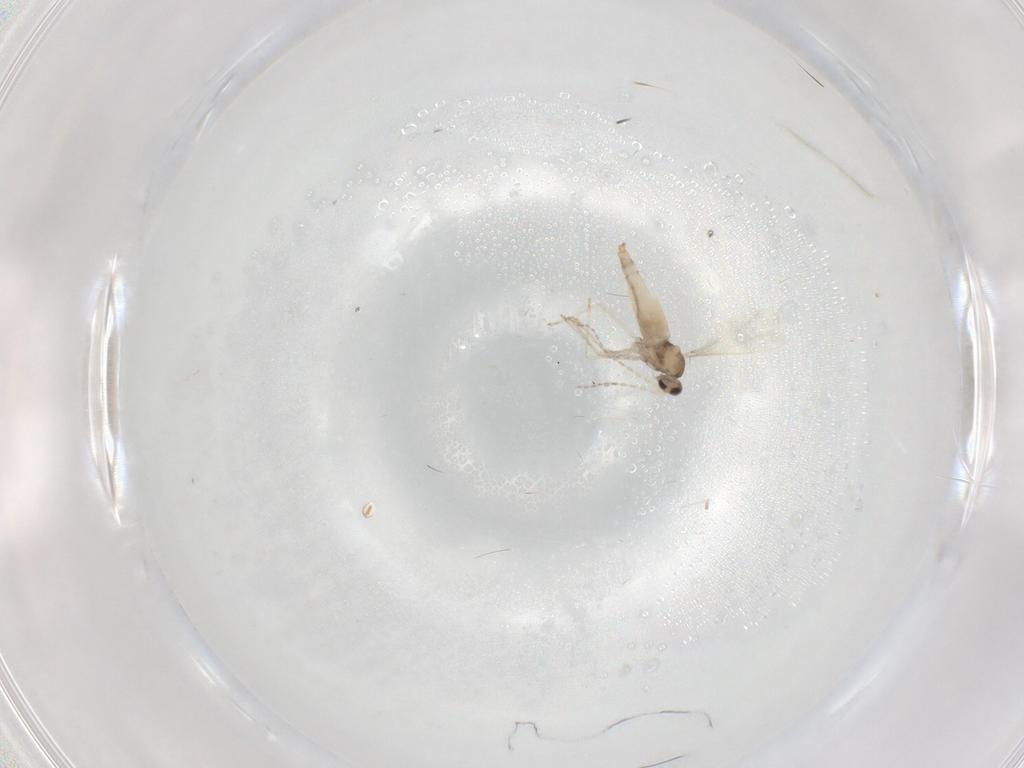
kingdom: Animalia
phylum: Arthropoda
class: Insecta
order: Diptera
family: Cecidomyiidae
